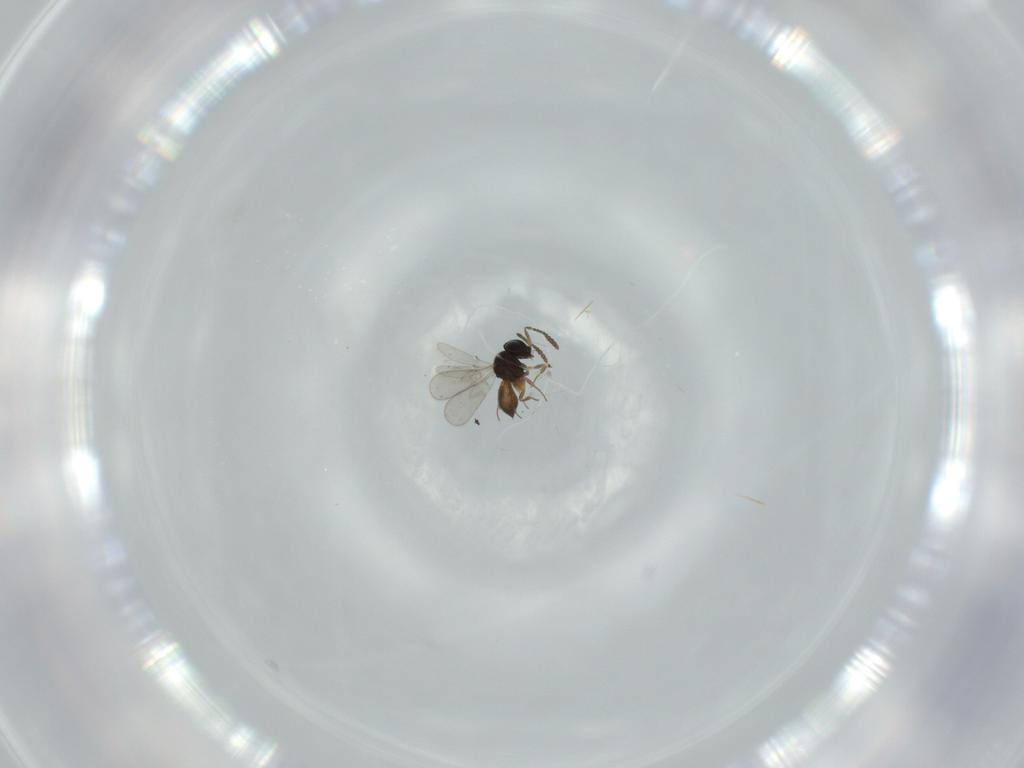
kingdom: Animalia
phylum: Arthropoda
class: Insecta
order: Hymenoptera
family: Scelionidae
